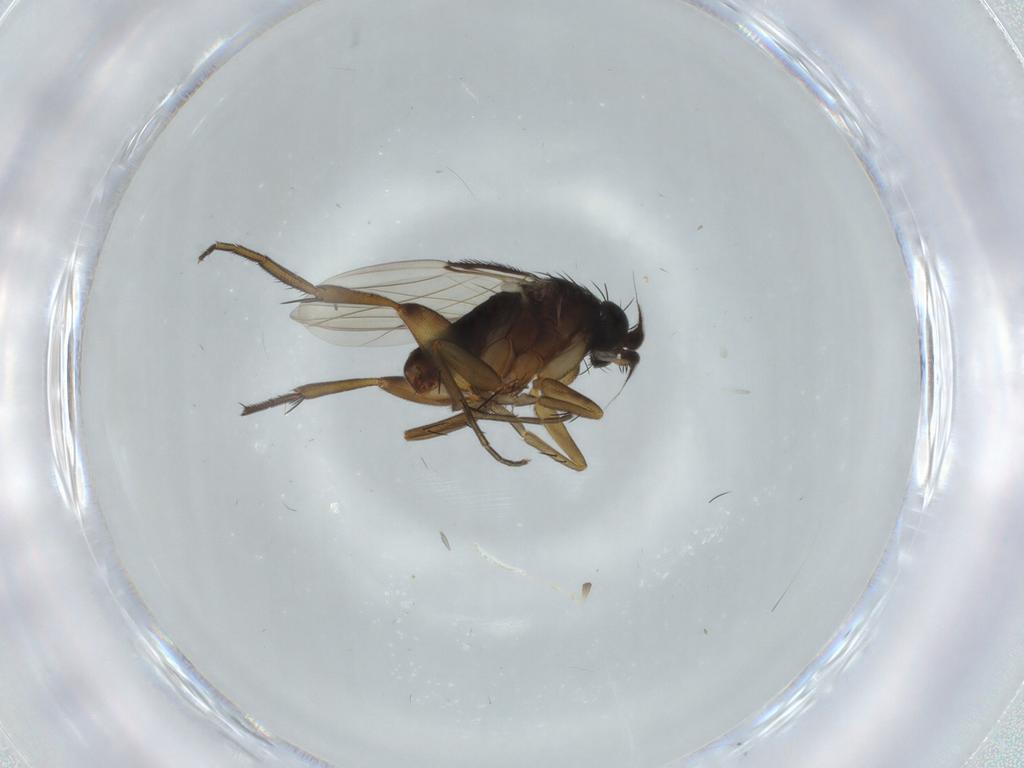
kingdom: Animalia
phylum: Arthropoda
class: Insecta
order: Diptera
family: Phoridae
